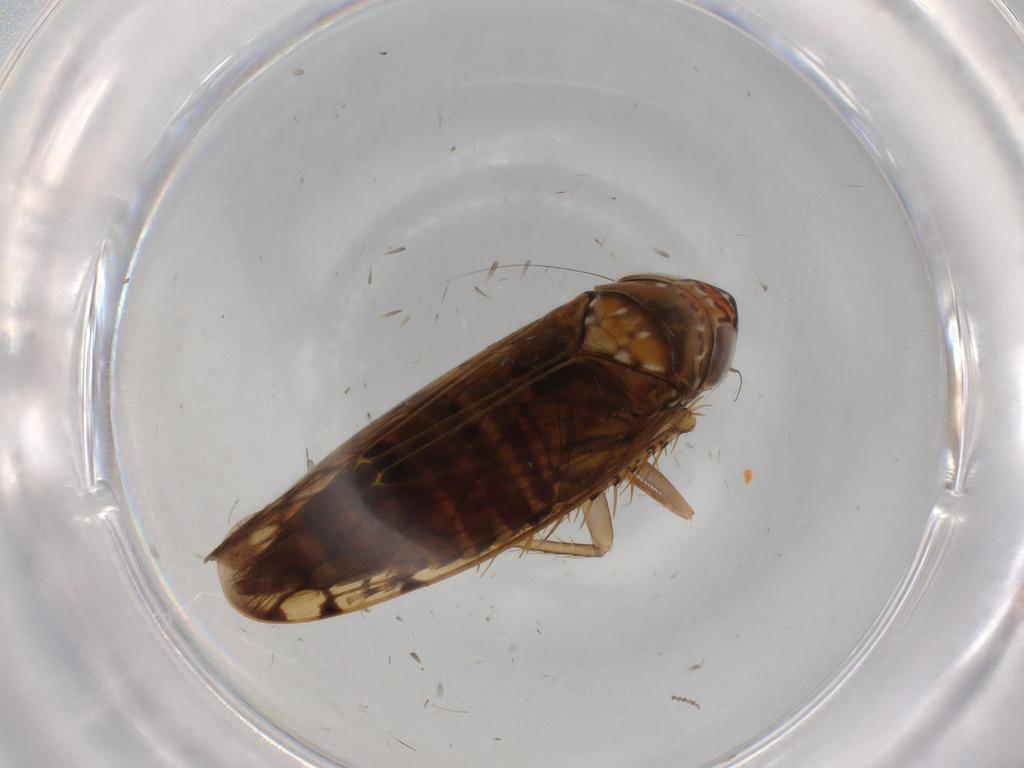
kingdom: Animalia
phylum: Arthropoda
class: Insecta
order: Hemiptera
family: Cicadellidae
